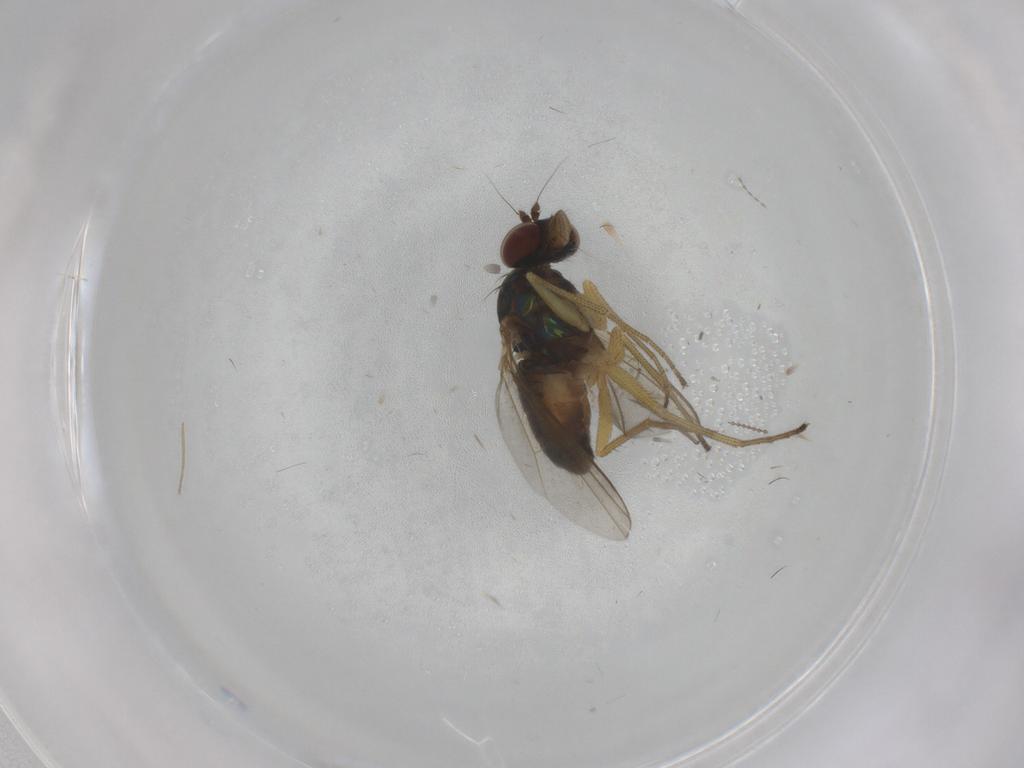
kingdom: Animalia
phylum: Arthropoda
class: Insecta
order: Diptera
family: Dolichopodidae
